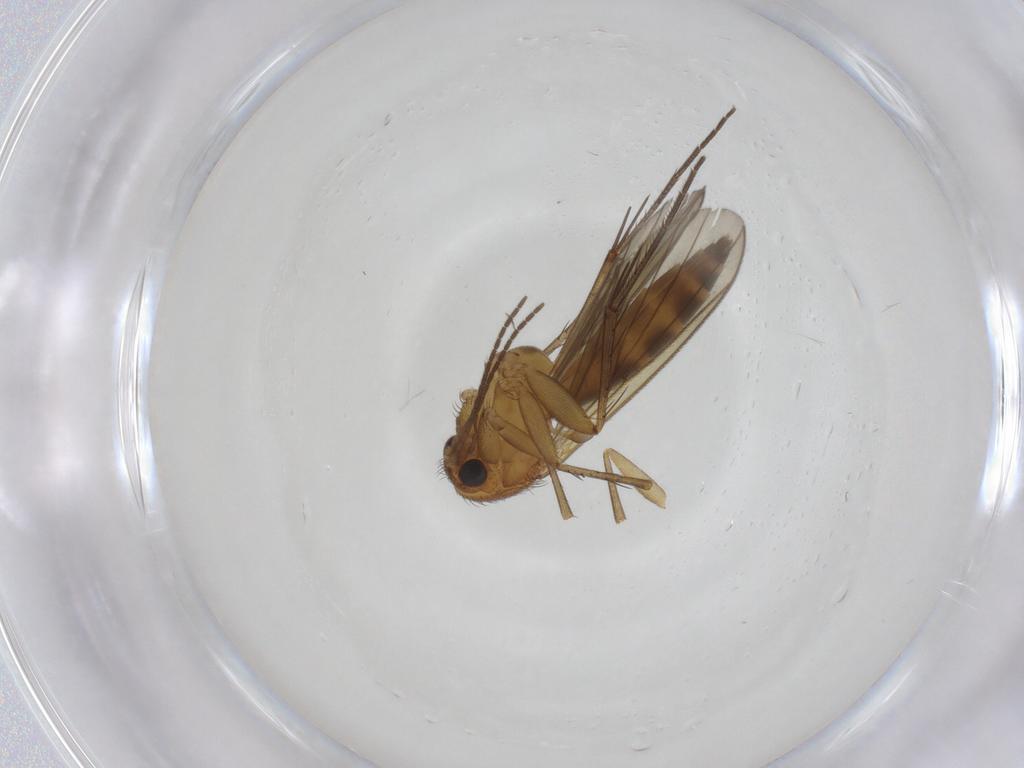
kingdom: Animalia
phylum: Arthropoda
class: Insecta
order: Diptera
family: Mycetophilidae
